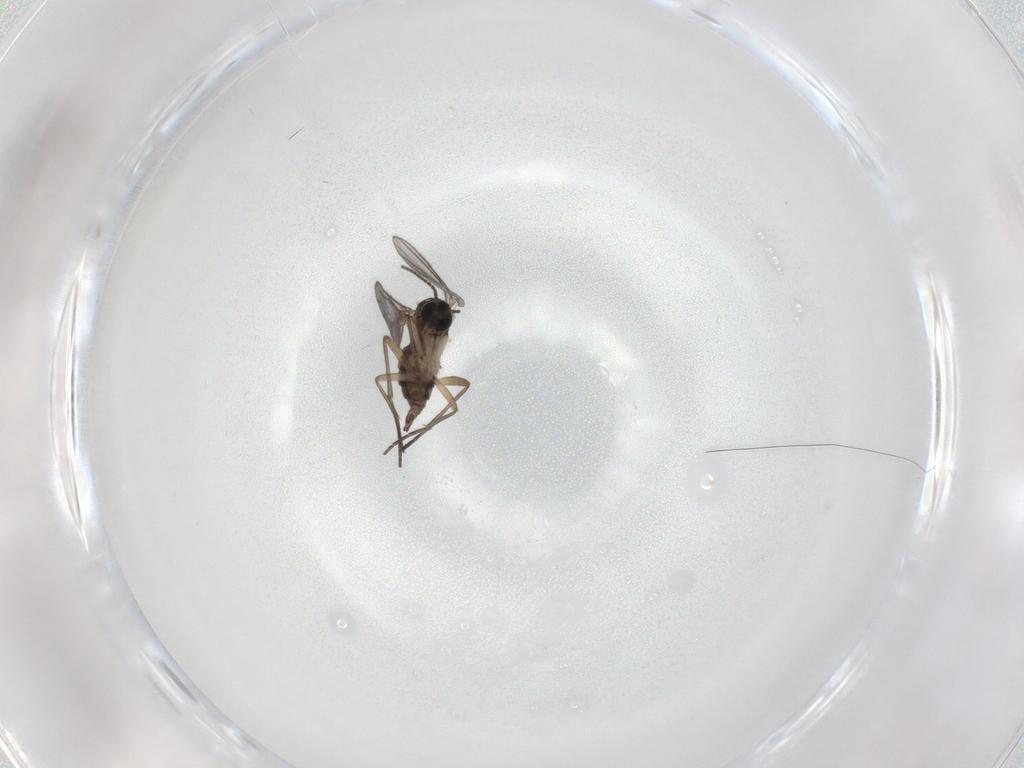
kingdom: Animalia
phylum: Arthropoda
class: Insecta
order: Diptera
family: Chironomidae
